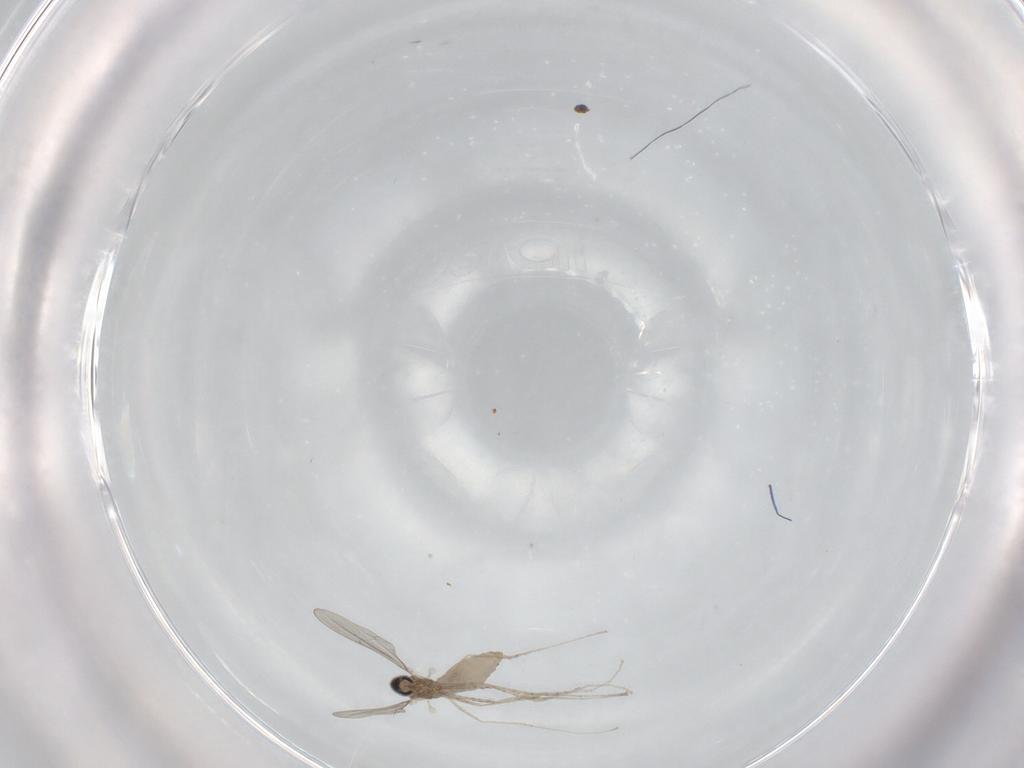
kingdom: Animalia
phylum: Arthropoda
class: Insecta
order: Diptera
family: Cecidomyiidae
